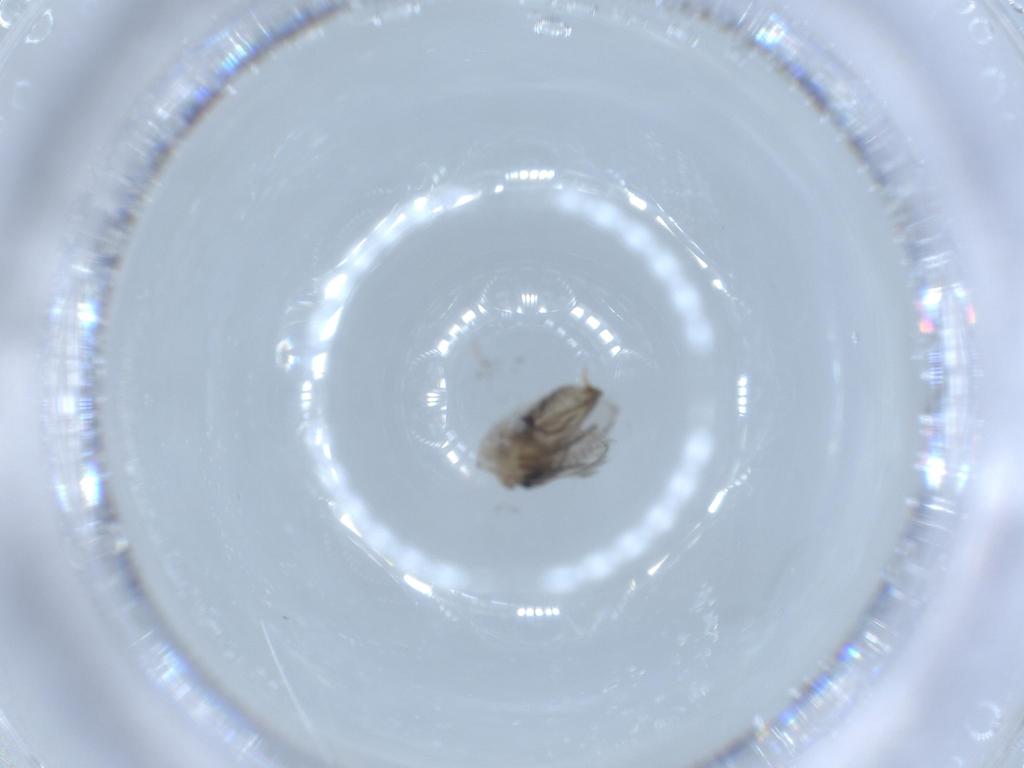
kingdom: Animalia
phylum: Arthropoda
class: Insecta
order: Diptera
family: Psychodidae
